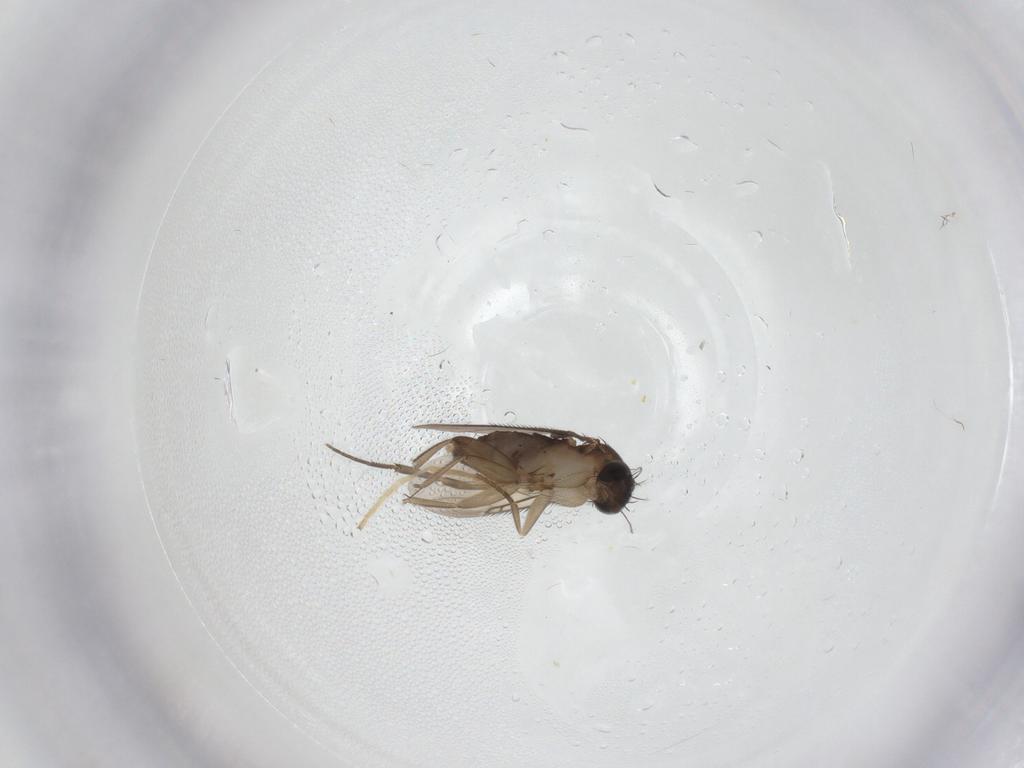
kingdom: Animalia
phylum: Arthropoda
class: Insecta
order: Diptera
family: Phoridae
